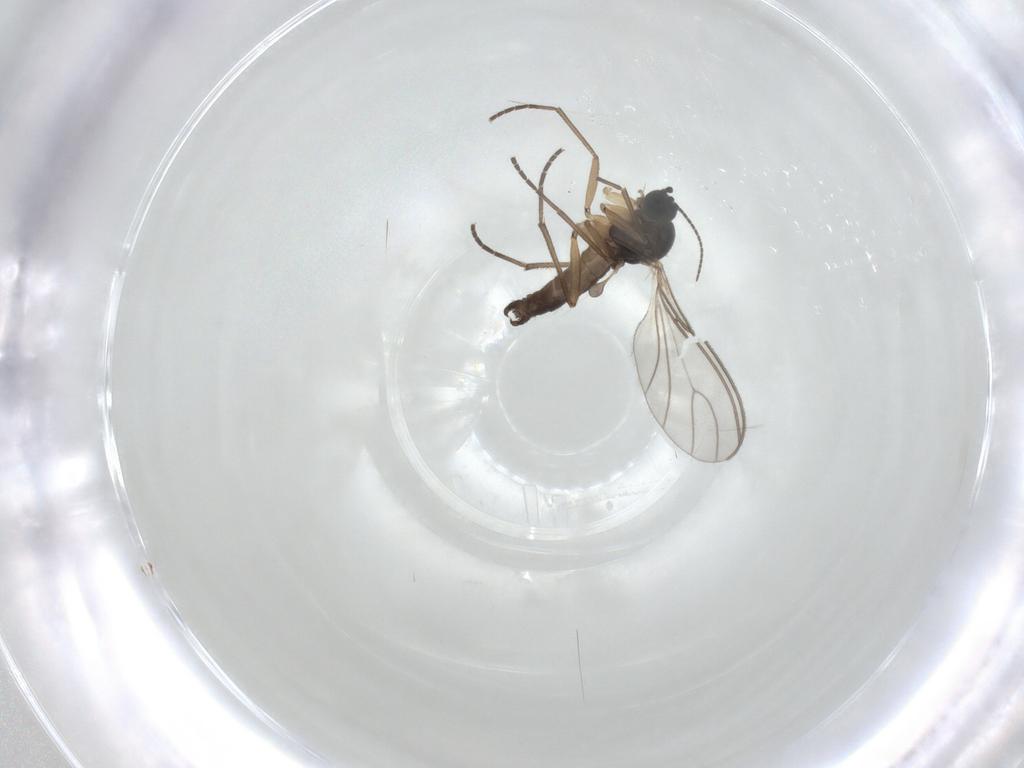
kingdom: Animalia
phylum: Arthropoda
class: Insecta
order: Diptera
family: Sciaridae
